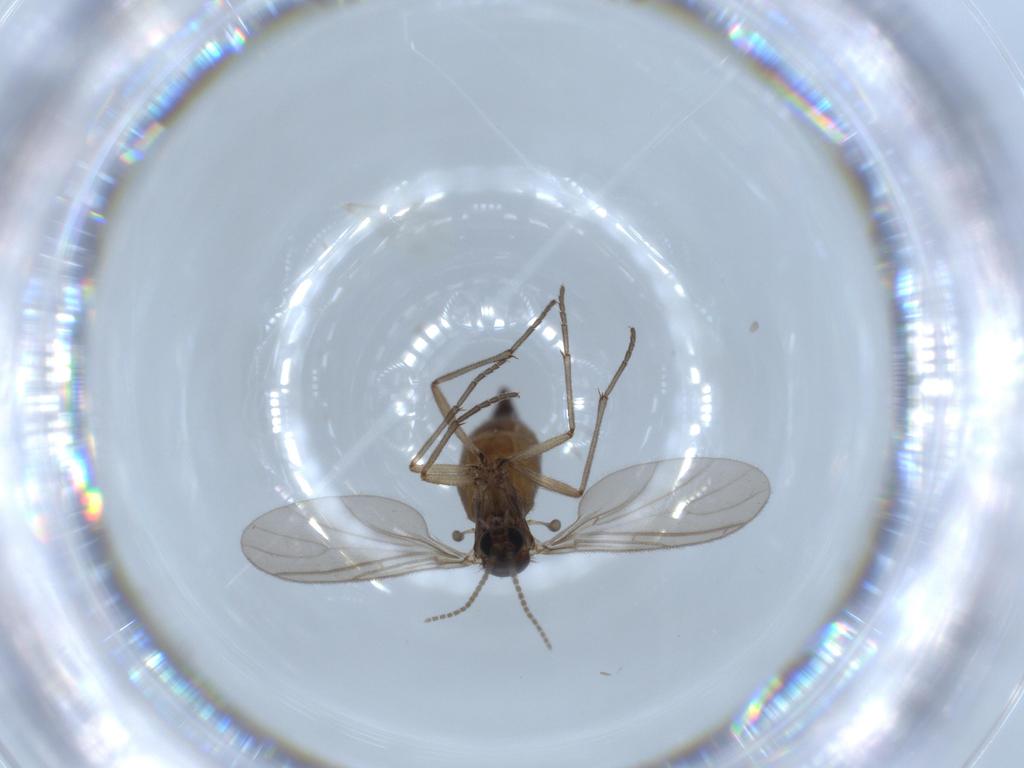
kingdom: Animalia
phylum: Arthropoda
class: Insecta
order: Diptera
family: Sciaridae
